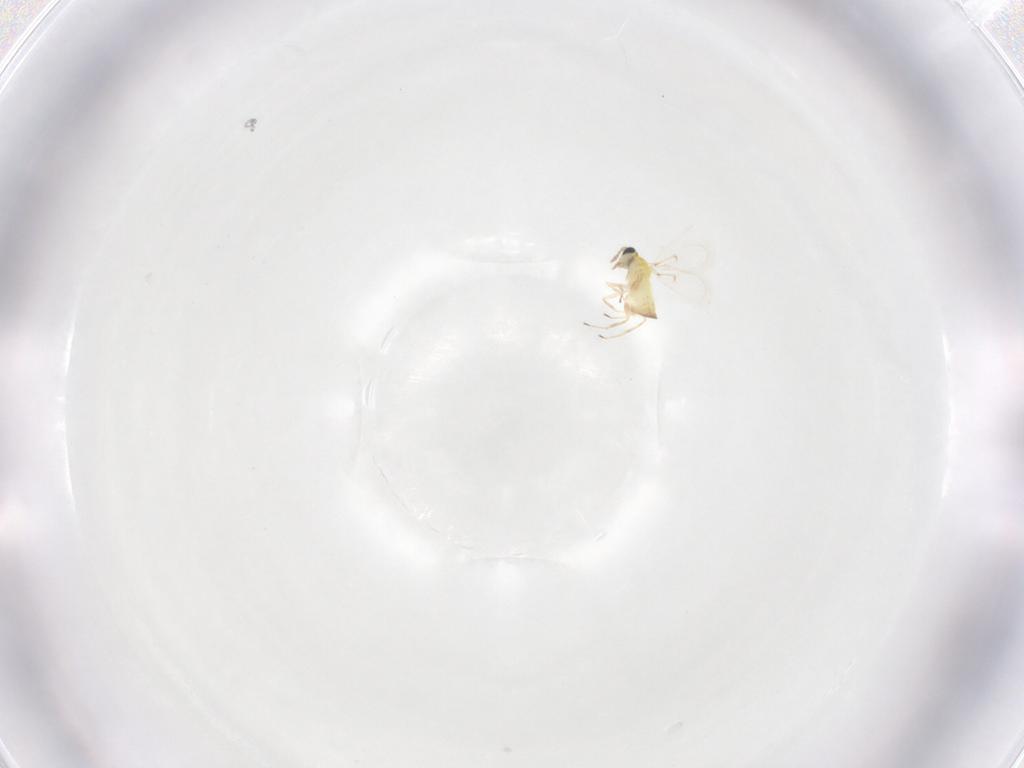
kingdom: Animalia
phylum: Arthropoda
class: Insecta
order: Hymenoptera
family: Trichogrammatidae
